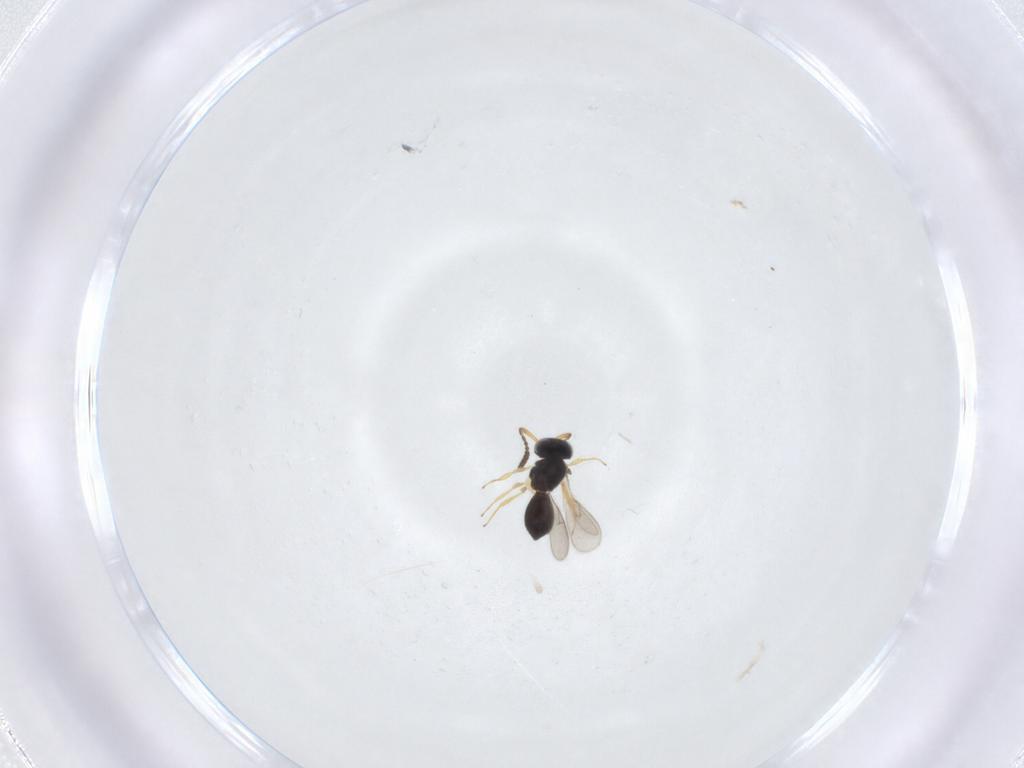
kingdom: Animalia
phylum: Arthropoda
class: Insecta
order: Hymenoptera
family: Scelionidae
